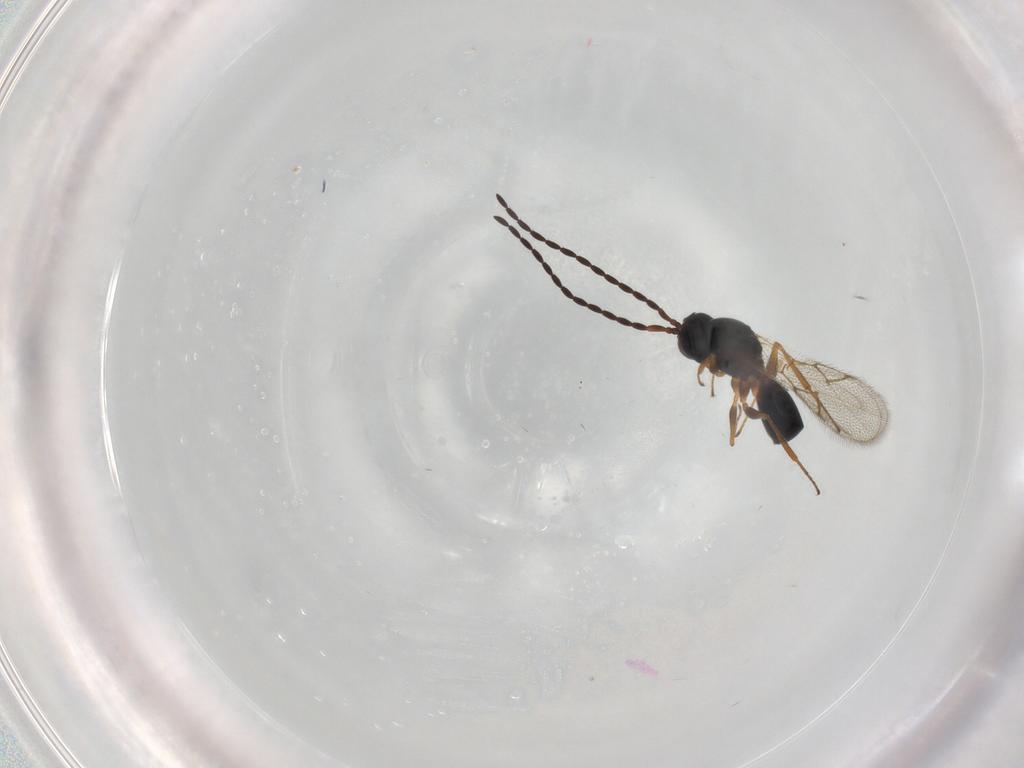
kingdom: Animalia
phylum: Arthropoda
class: Insecta
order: Hymenoptera
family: Figitidae
